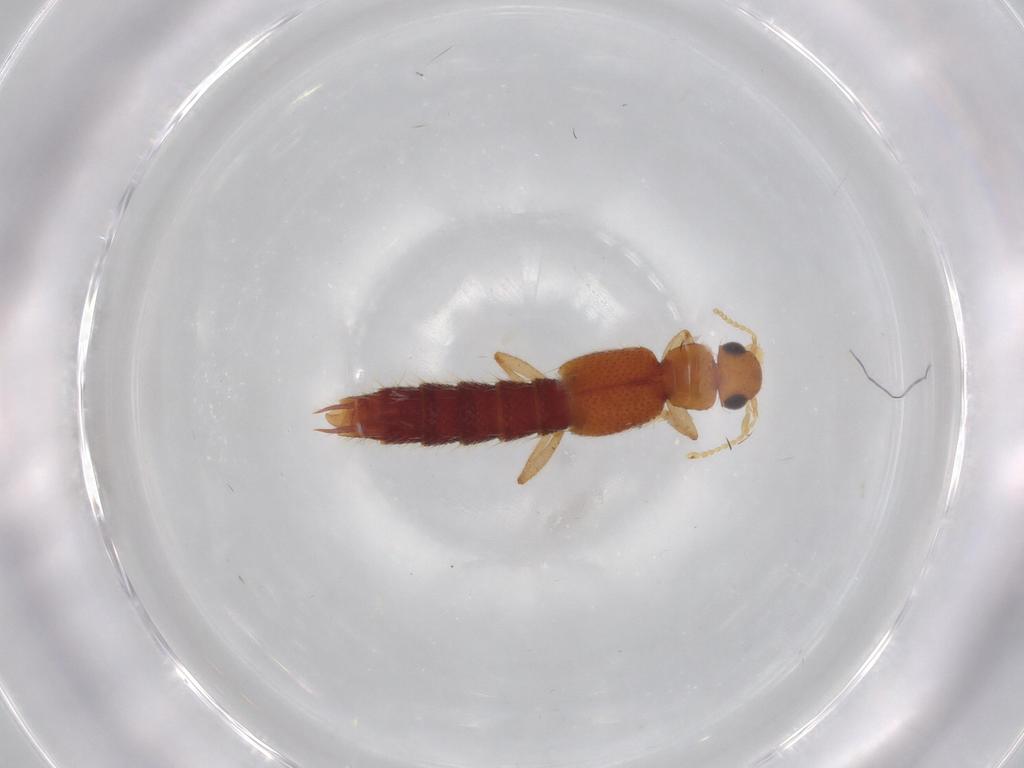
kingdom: Animalia
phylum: Arthropoda
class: Insecta
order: Coleoptera
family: Staphylinidae
